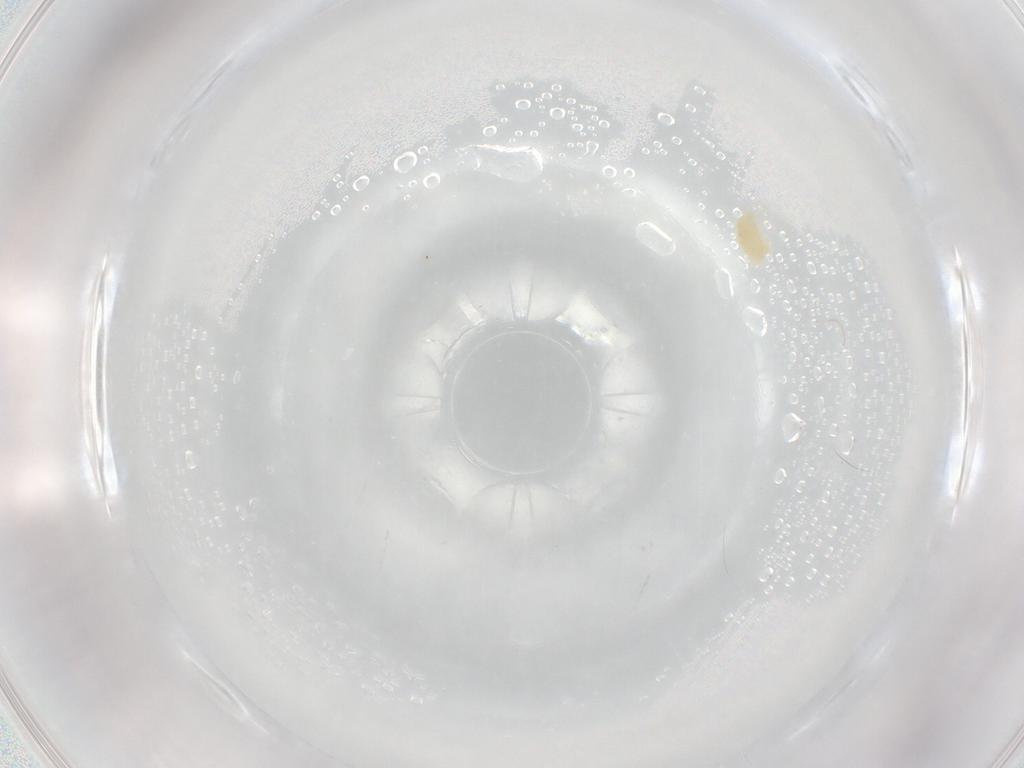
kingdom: Animalia
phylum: Arthropoda
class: Arachnida
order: Trombidiformes
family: Eupodidae
